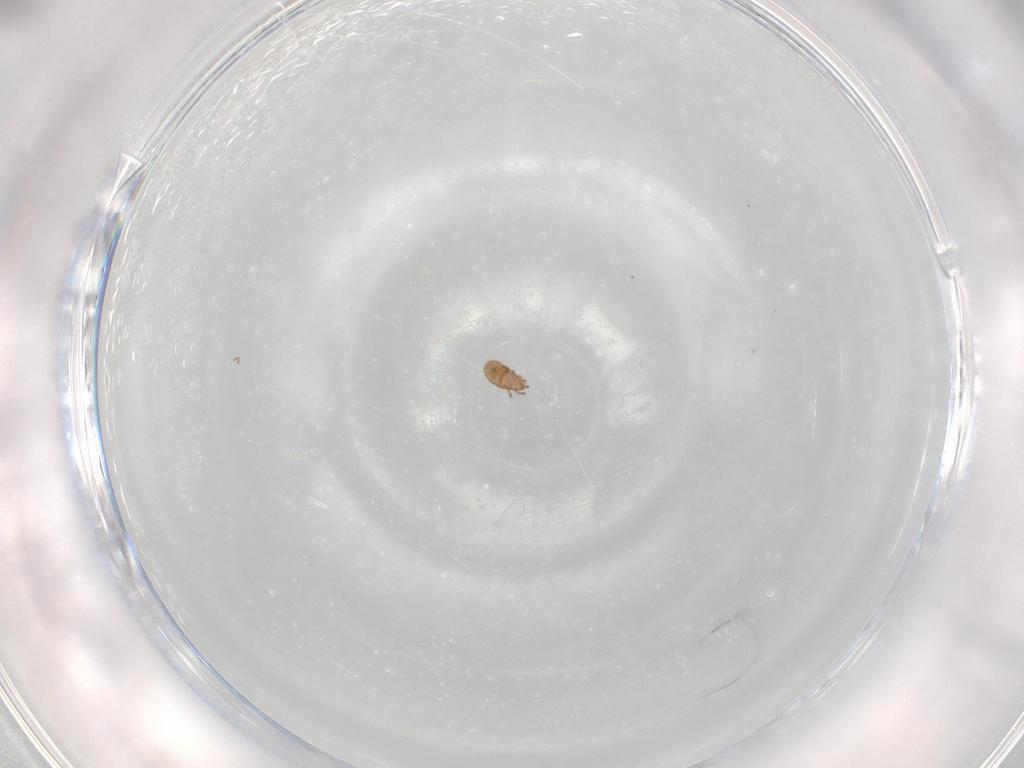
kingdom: Animalia
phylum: Arthropoda
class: Arachnida
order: Sarcoptiformes
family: Eremaeidae
